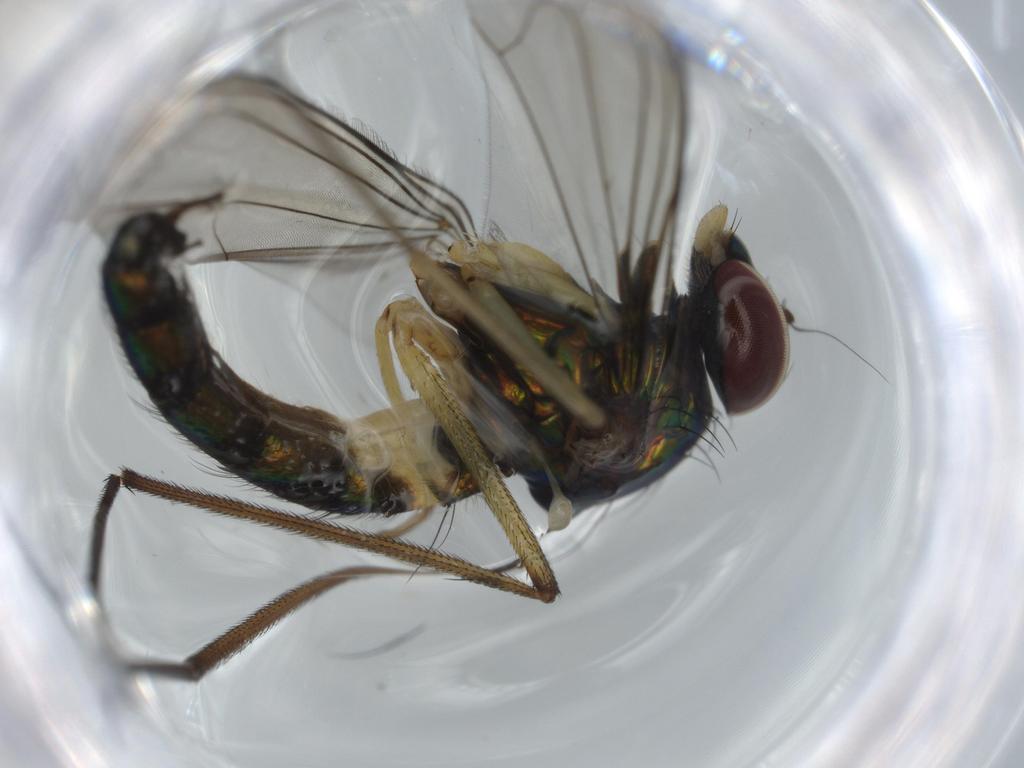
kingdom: Animalia
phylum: Arthropoda
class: Insecta
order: Diptera
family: Dolichopodidae
